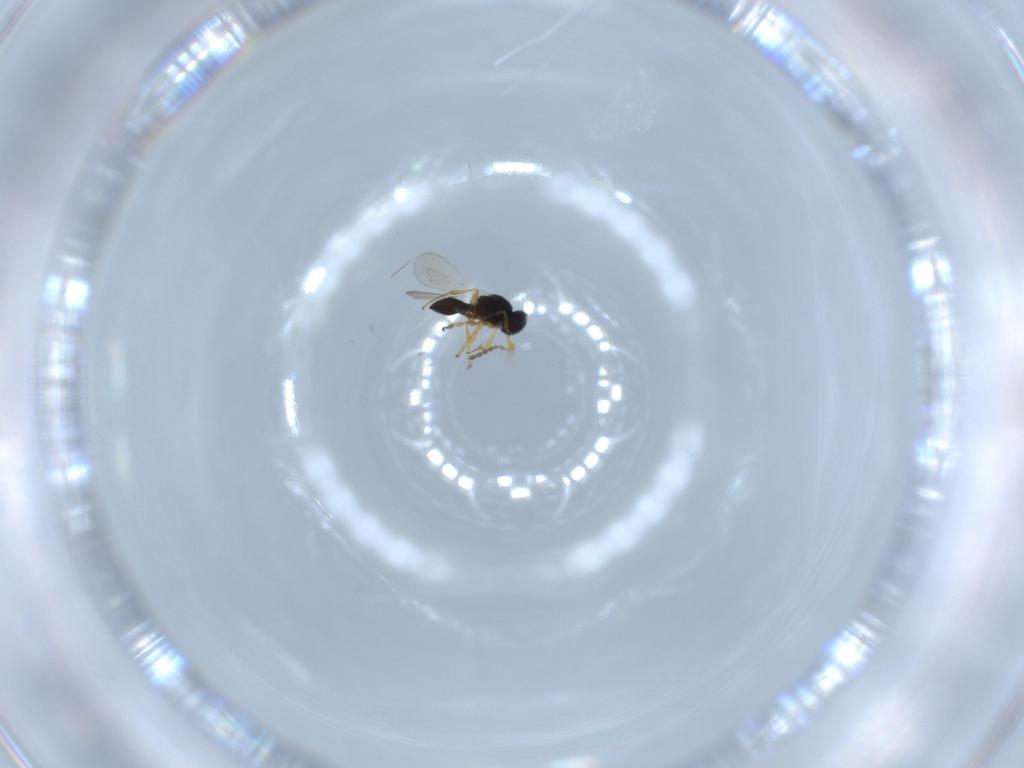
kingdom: Animalia
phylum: Arthropoda
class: Insecta
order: Hymenoptera
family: Platygastridae
